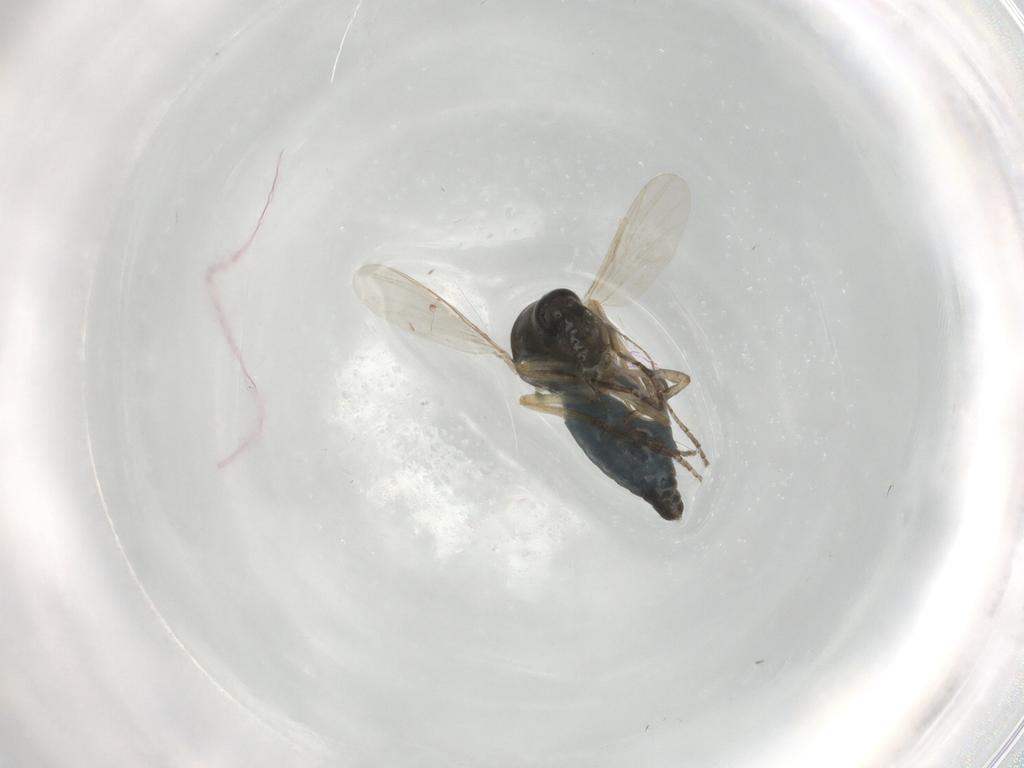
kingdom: Animalia
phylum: Arthropoda
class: Insecta
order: Diptera
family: Ceratopogonidae
